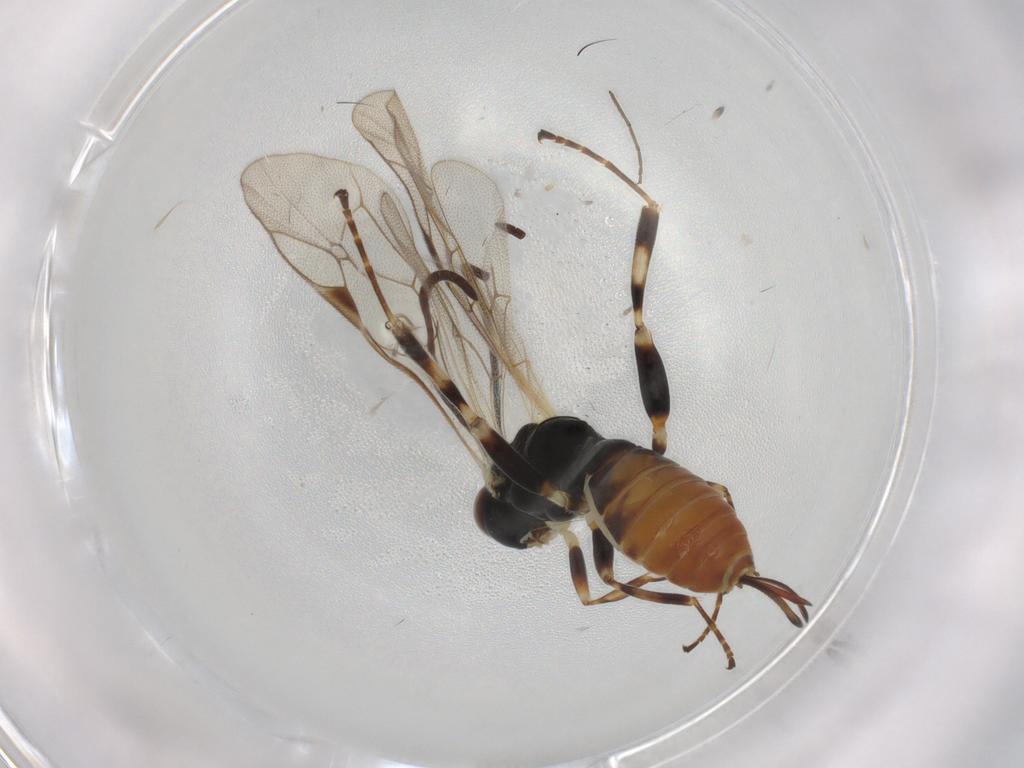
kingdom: Animalia
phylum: Arthropoda
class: Insecta
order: Hymenoptera
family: Ichneumonidae
